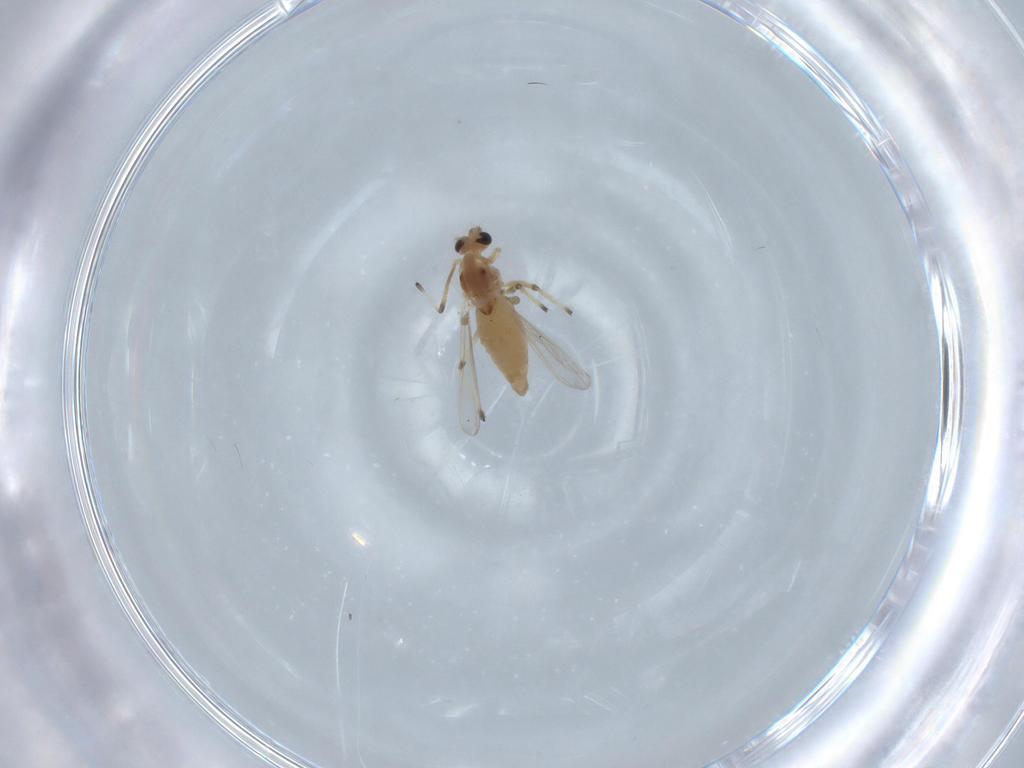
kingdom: Animalia
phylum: Arthropoda
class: Insecta
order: Diptera
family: Chironomidae
